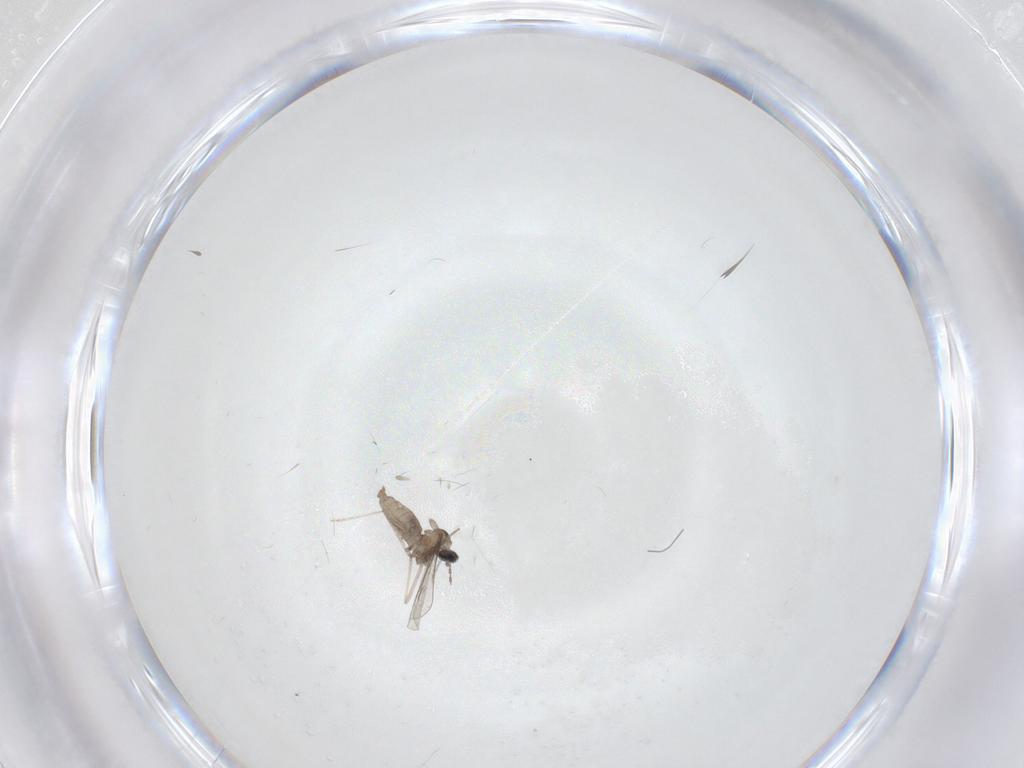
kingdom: Animalia
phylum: Arthropoda
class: Insecta
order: Diptera
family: Cecidomyiidae
